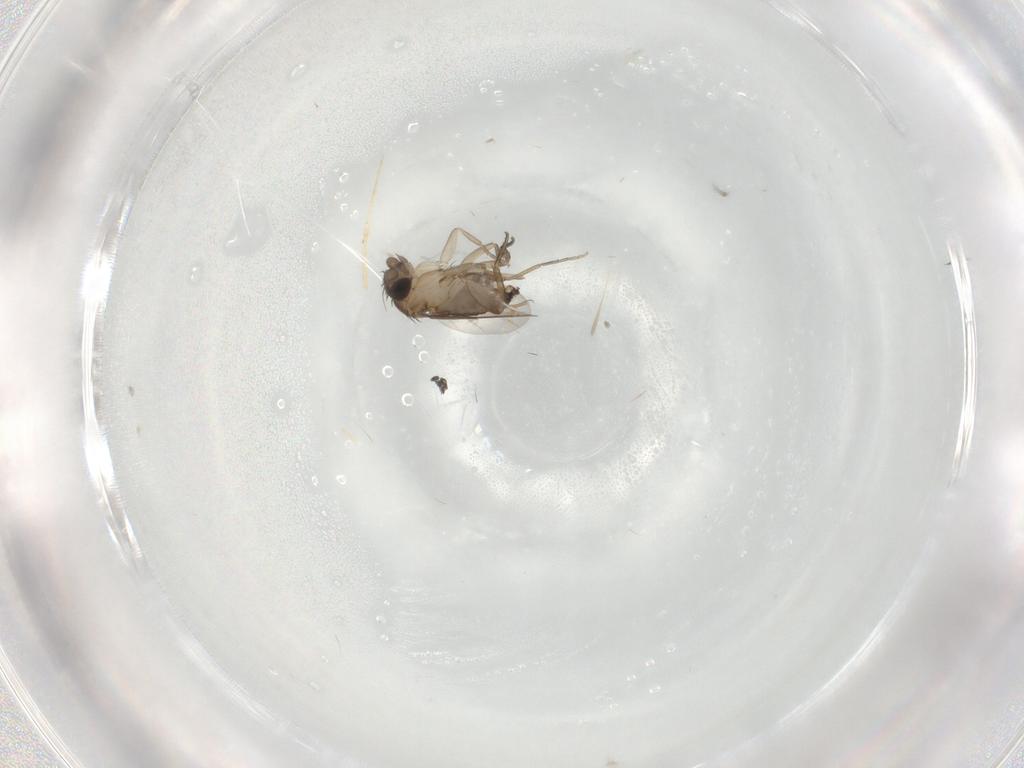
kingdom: Animalia
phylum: Arthropoda
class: Insecta
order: Diptera
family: Phoridae
